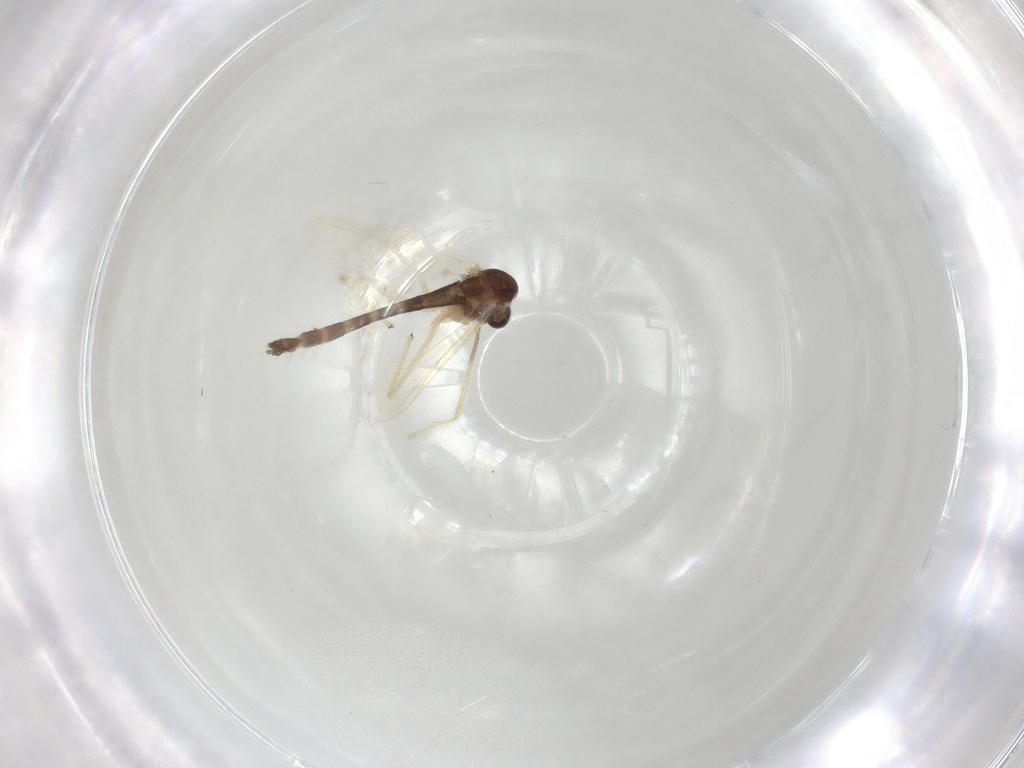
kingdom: Animalia
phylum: Arthropoda
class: Insecta
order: Diptera
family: Chironomidae
